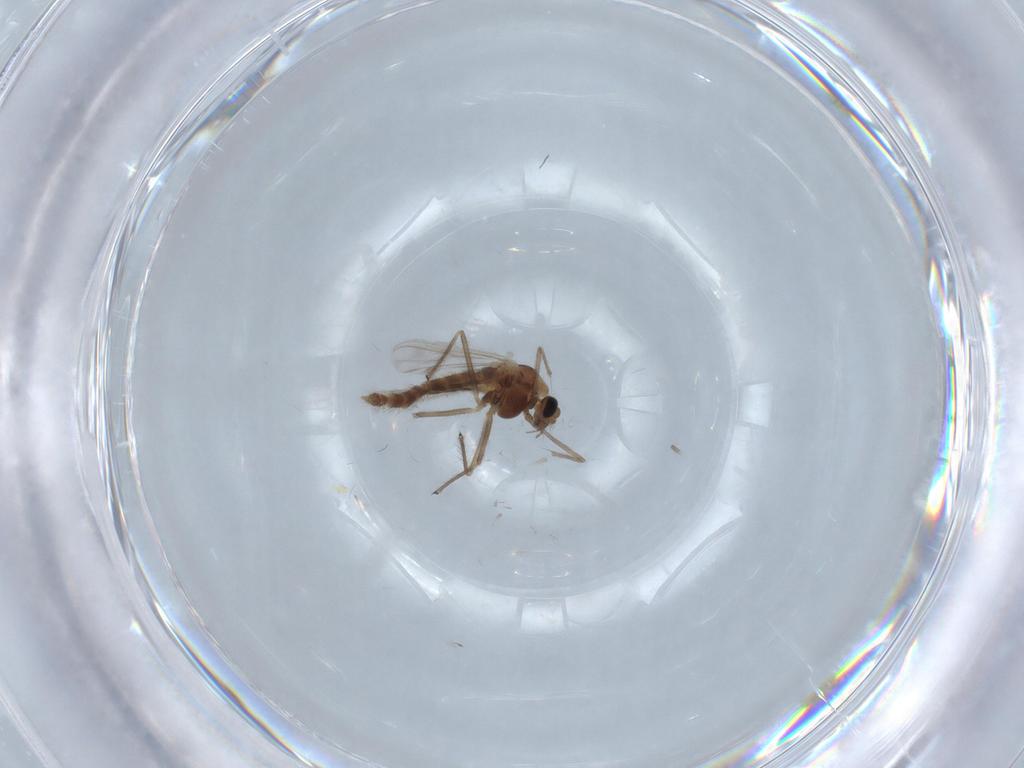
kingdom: Animalia
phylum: Arthropoda
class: Insecta
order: Diptera
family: Chironomidae
